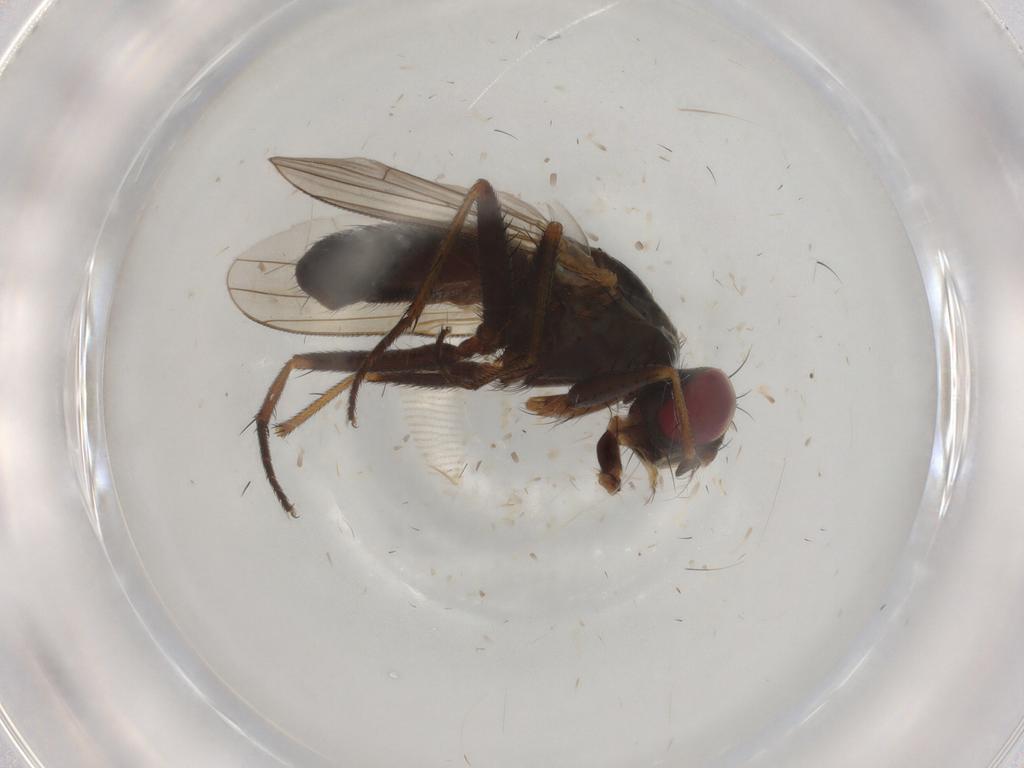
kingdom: Animalia
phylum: Arthropoda
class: Insecta
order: Diptera
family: Muscidae
